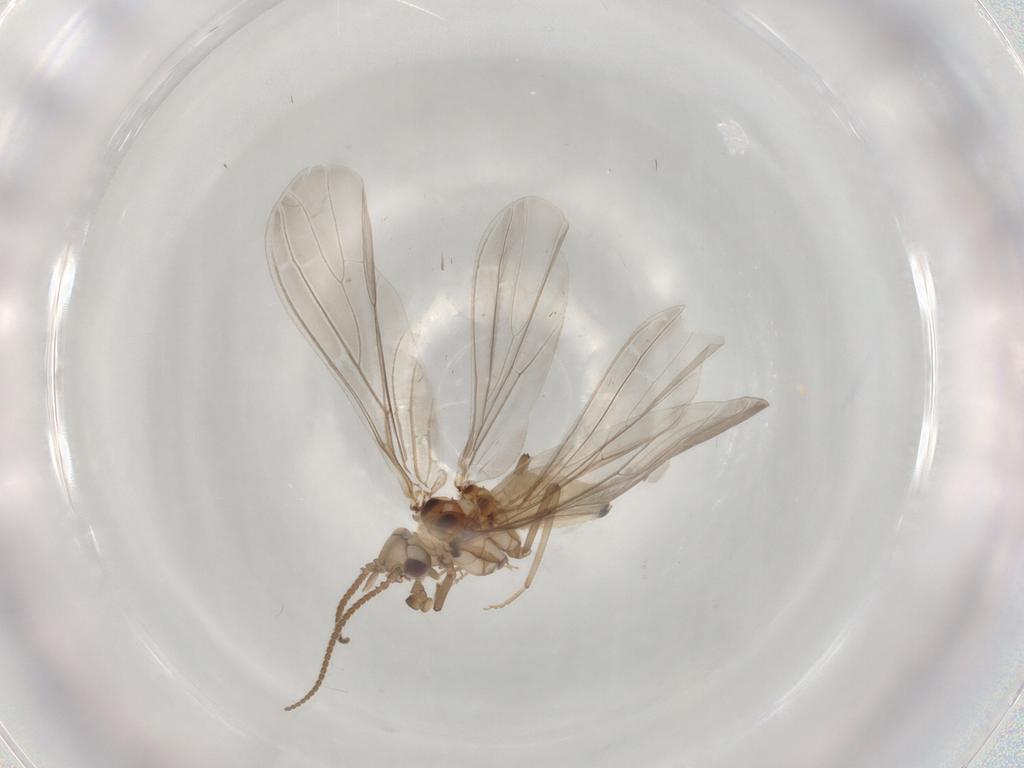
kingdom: Animalia
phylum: Arthropoda
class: Insecta
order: Neuroptera
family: Coniopterygidae
